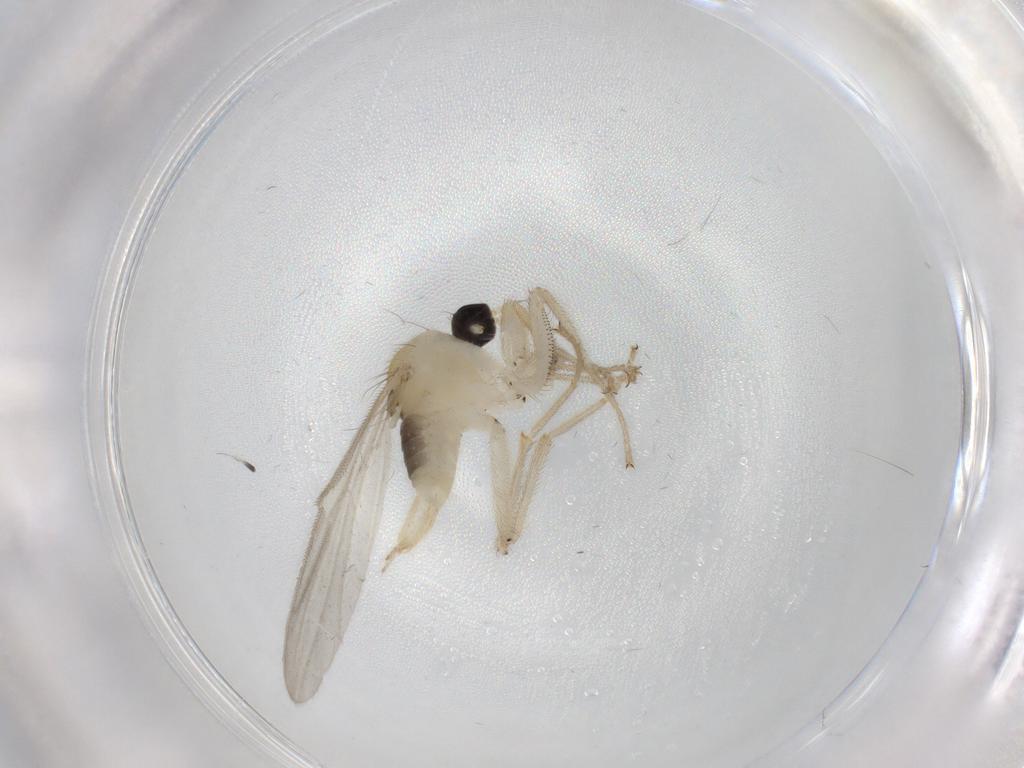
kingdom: Animalia
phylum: Arthropoda
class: Insecta
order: Diptera
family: Hybotidae
